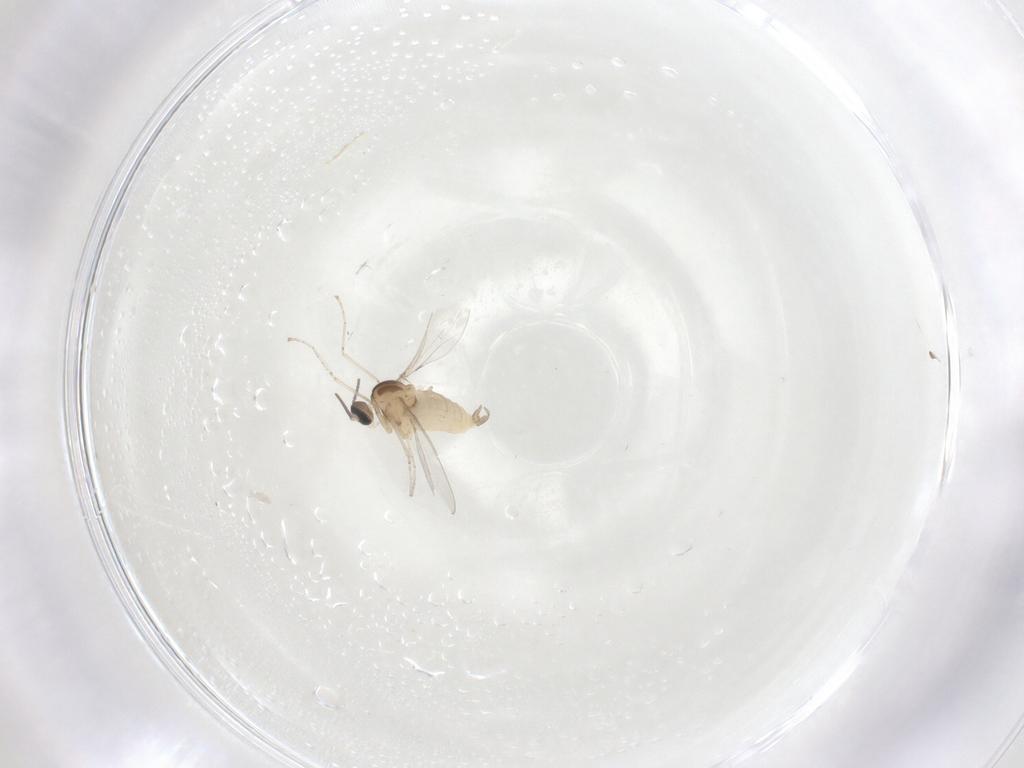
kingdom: Animalia
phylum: Arthropoda
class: Insecta
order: Diptera
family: Cecidomyiidae
